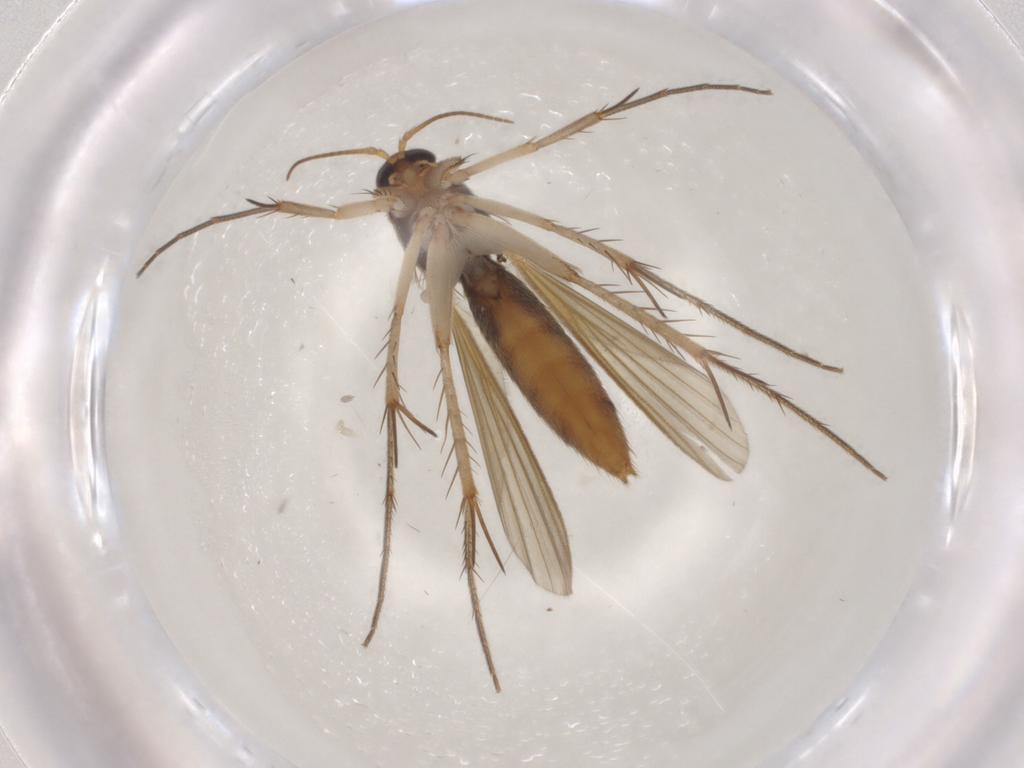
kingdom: Animalia
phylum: Arthropoda
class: Insecta
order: Diptera
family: Mycetophilidae
